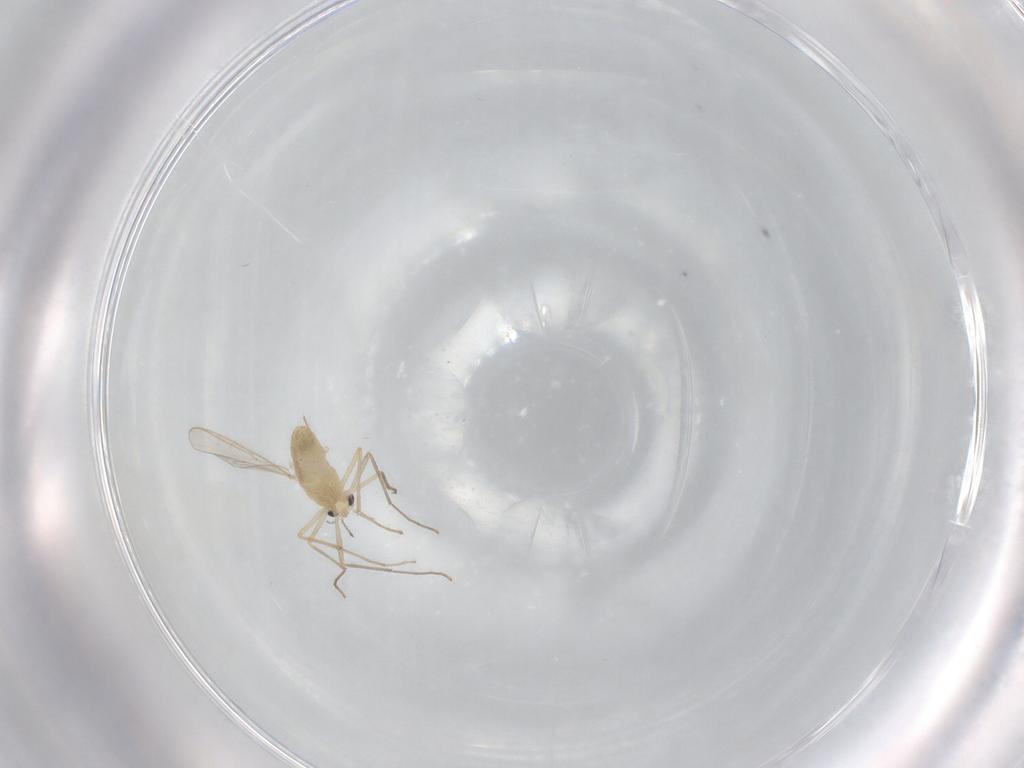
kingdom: Animalia
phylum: Arthropoda
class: Insecta
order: Diptera
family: Chironomidae
